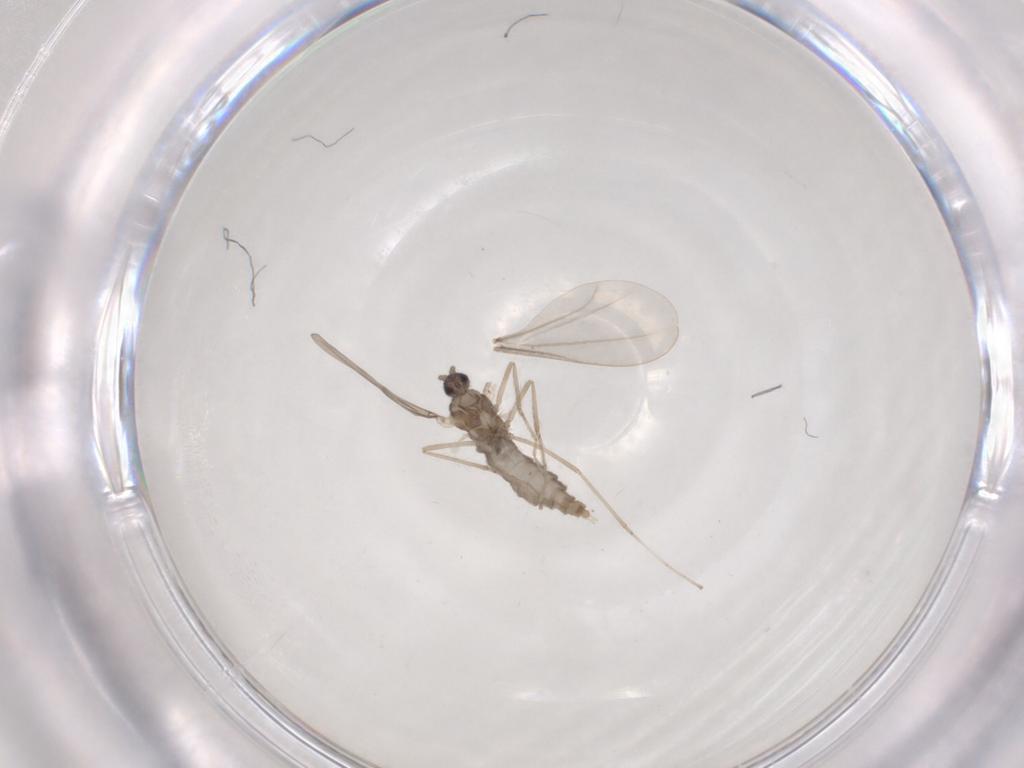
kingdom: Animalia
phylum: Arthropoda
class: Insecta
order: Diptera
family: Cecidomyiidae
